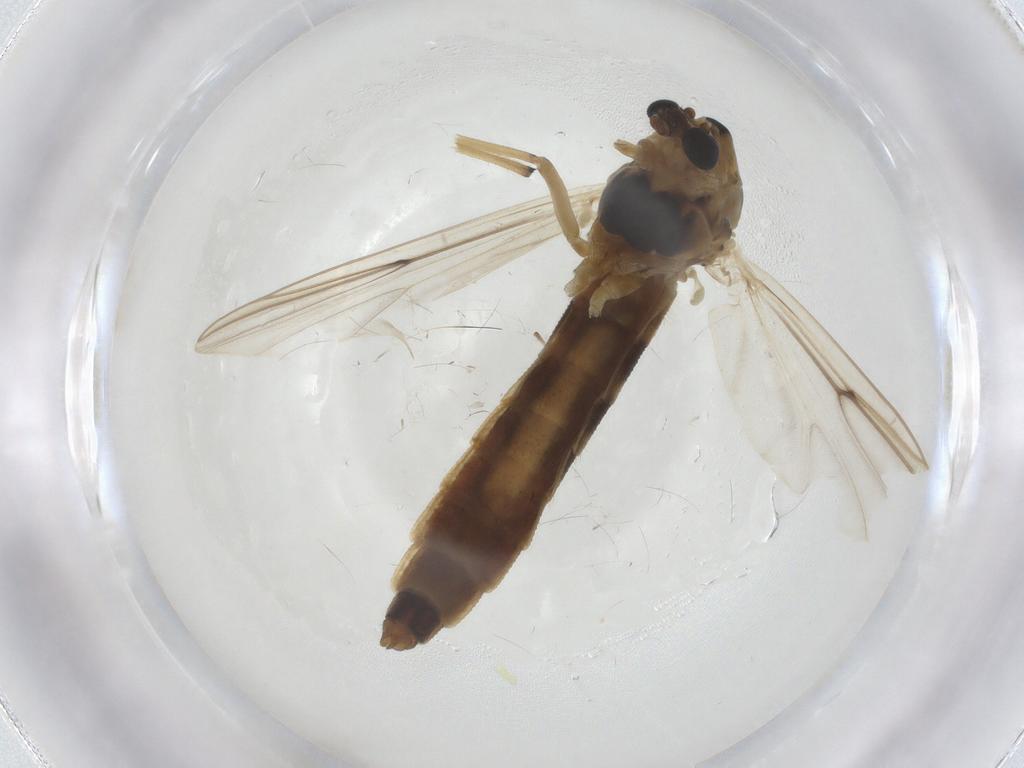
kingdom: Animalia
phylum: Arthropoda
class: Insecta
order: Diptera
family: Chironomidae
